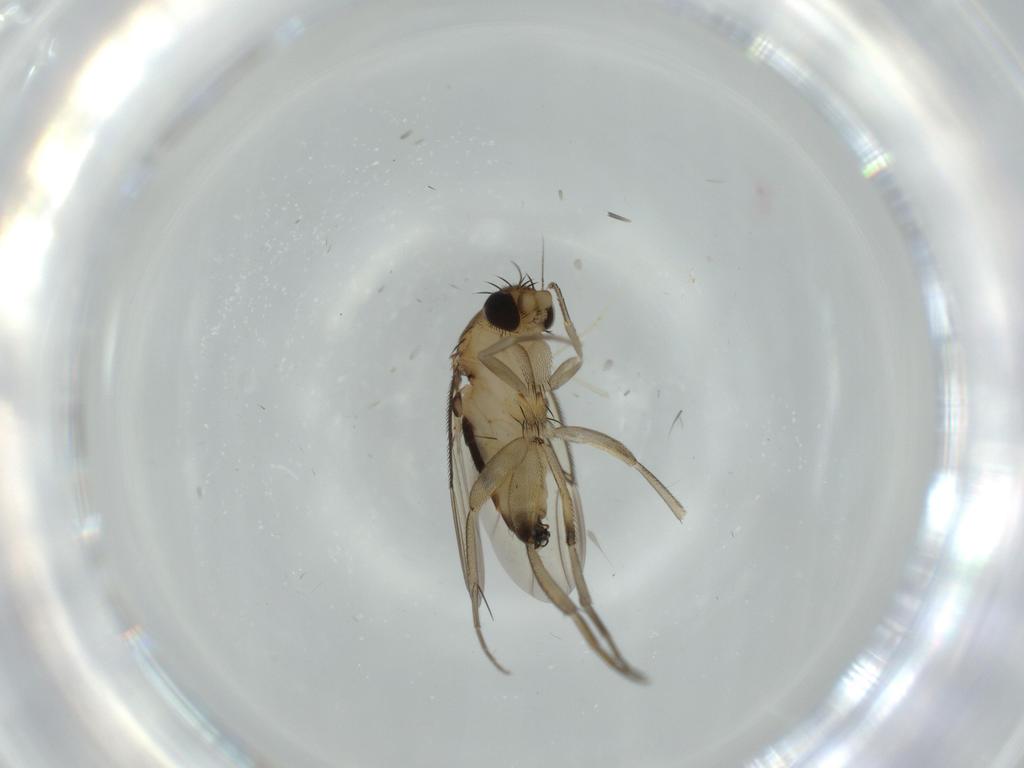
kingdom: Animalia
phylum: Arthropoda
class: Insecta
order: Diptera
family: Phoridae
